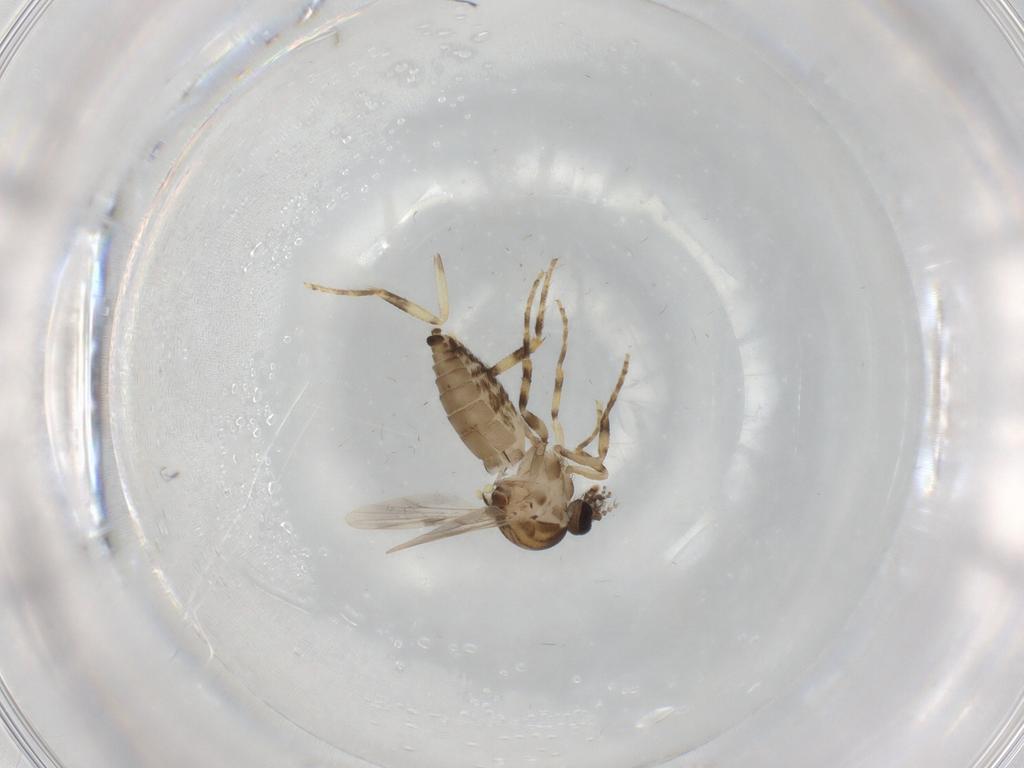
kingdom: Animalia
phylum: Arthropoda
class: Insecta
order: Diptera
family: Ceratopogonidae
